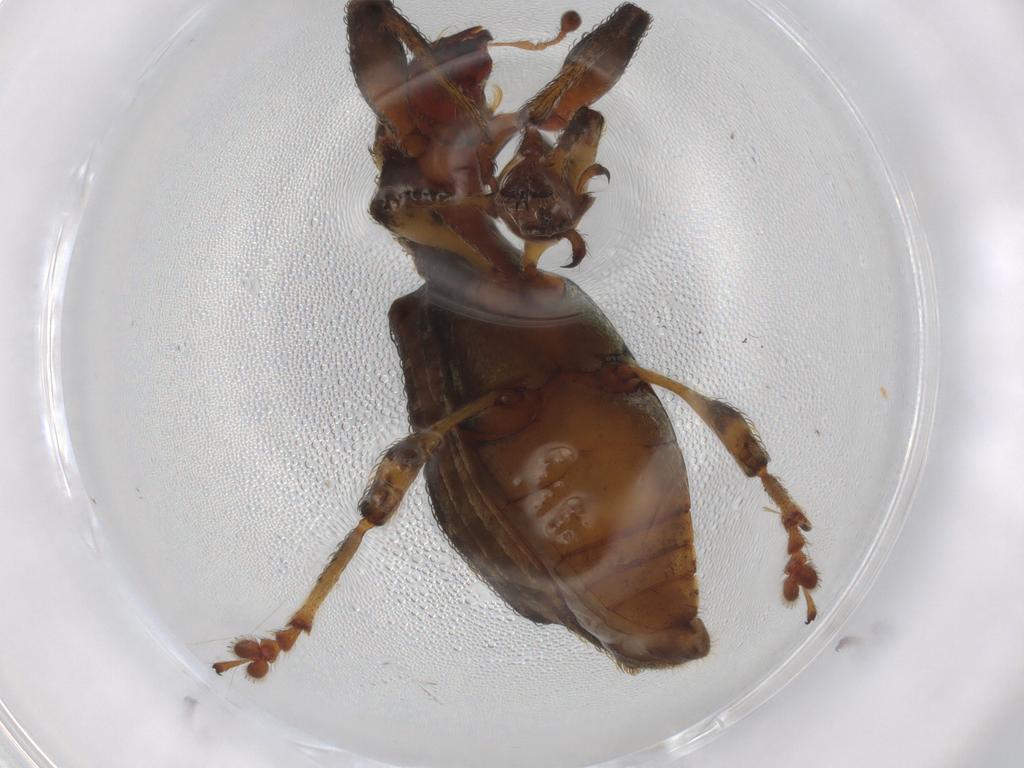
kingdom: Animalia
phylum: Arthropoda
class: Insecta
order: Coleoptera
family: Curculionidae
